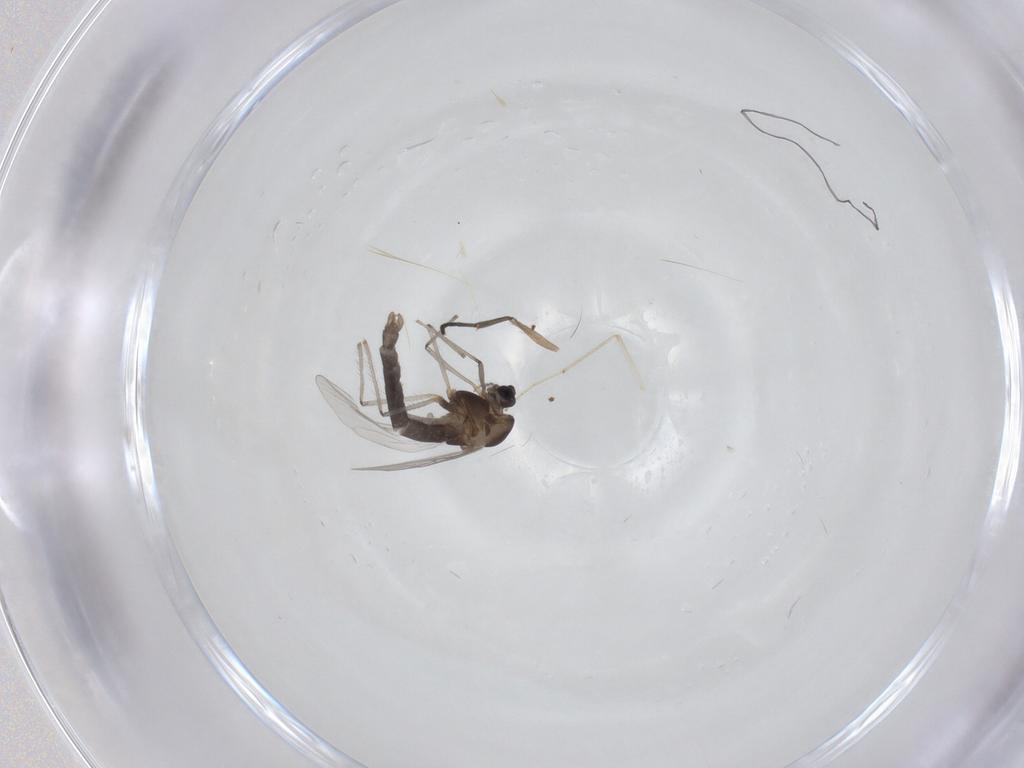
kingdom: Animalia
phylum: Arthropoda
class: Insecta
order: Diptera
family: Chironomidae
